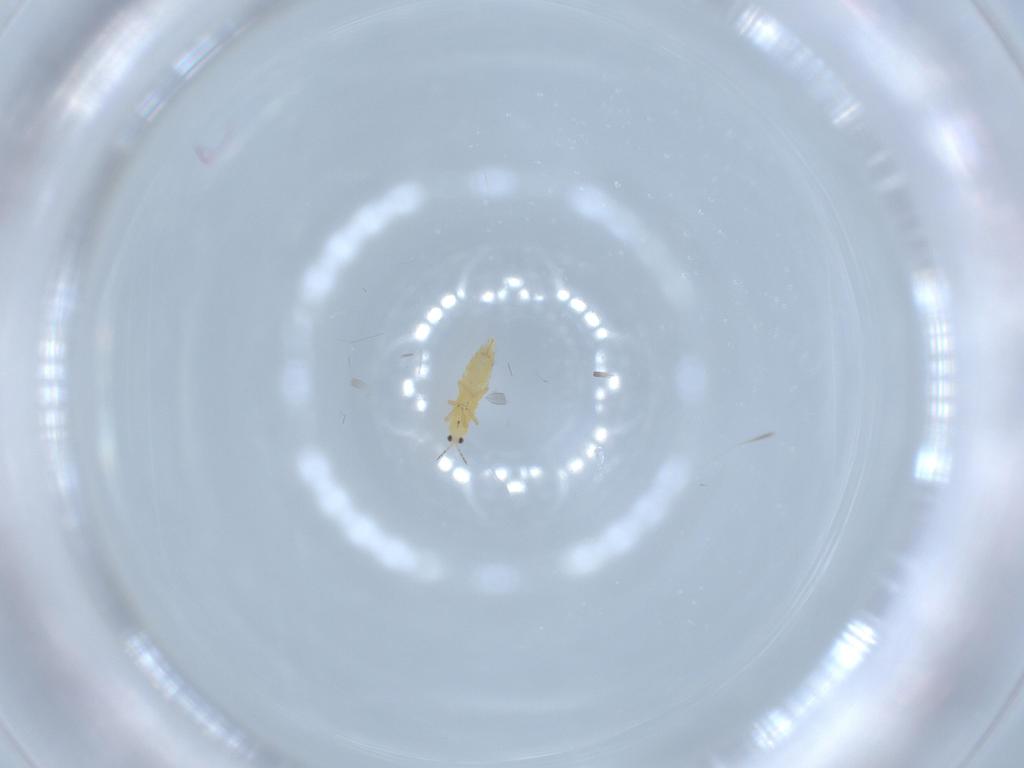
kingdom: Animalia
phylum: Arthropoda
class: Insecta
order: Thysanoptera
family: Thripidae
